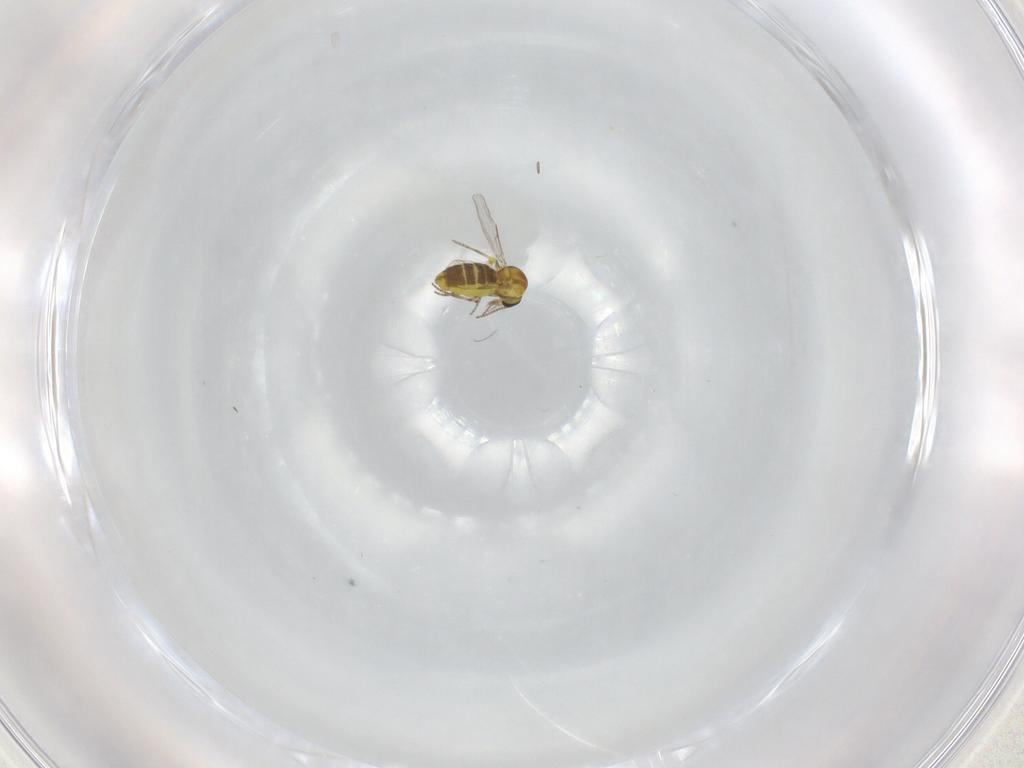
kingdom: Animalia
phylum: Arthropoda
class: Insecta
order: Diptera
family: Ceratopogonidae
